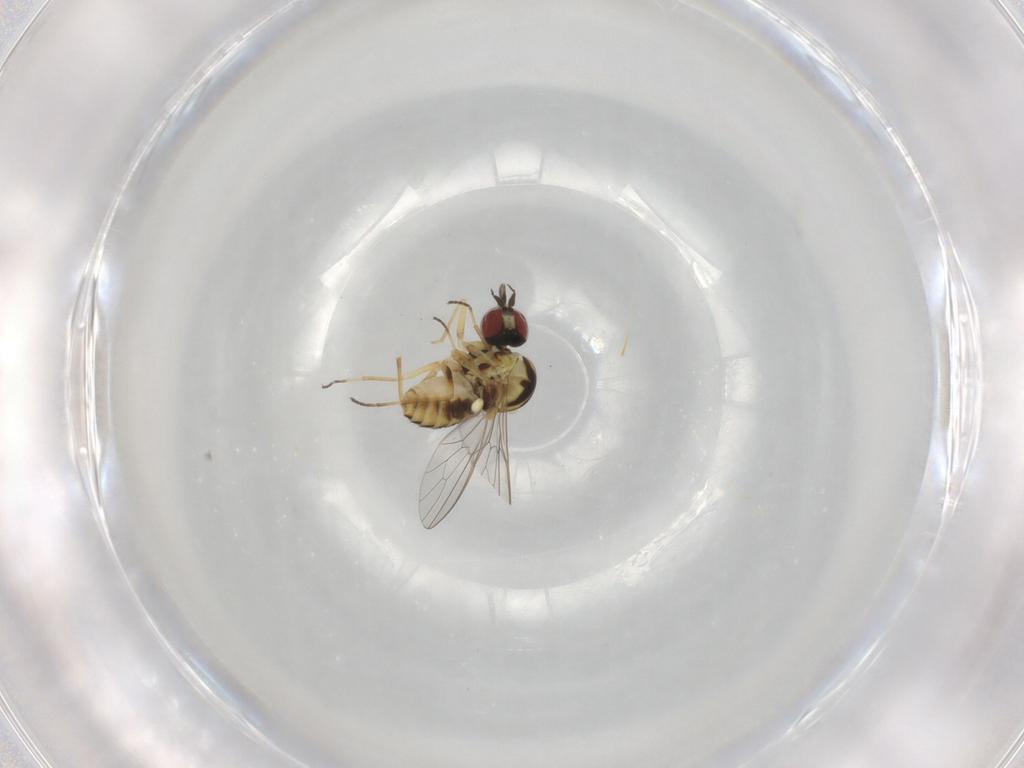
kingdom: Animalia
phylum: Arthropoda
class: Insecta
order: Diptera
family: Mythicomyiidae
